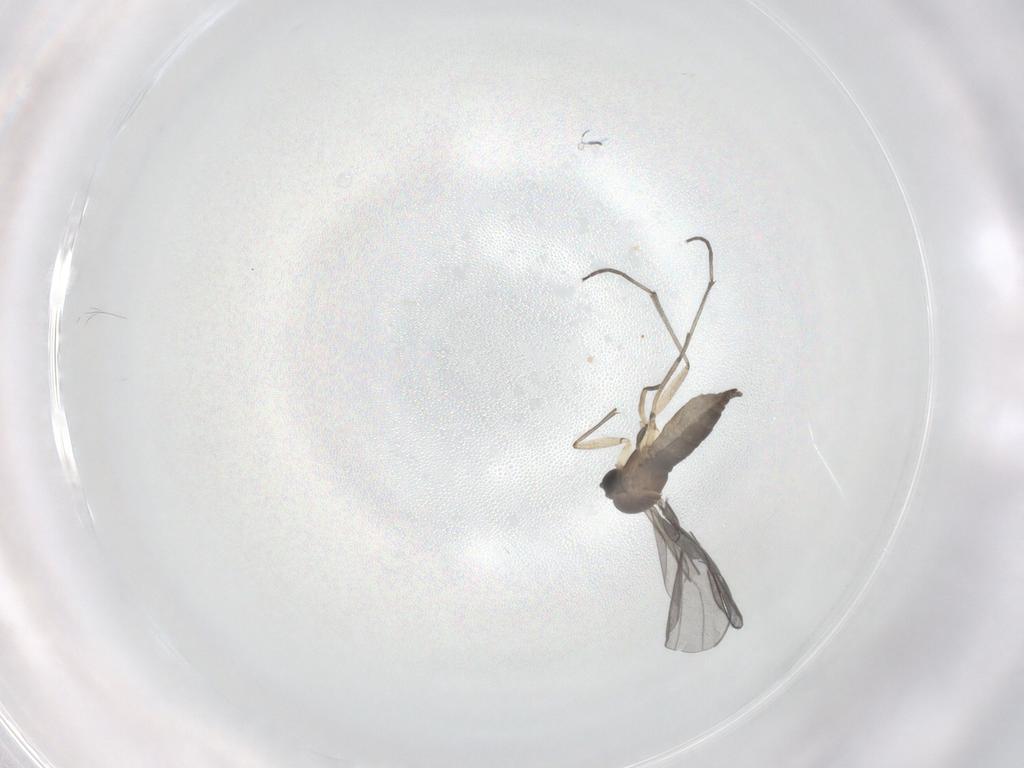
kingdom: Animalia
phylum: Arthropoda
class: Insecta
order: Diptera
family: Sciaridae
